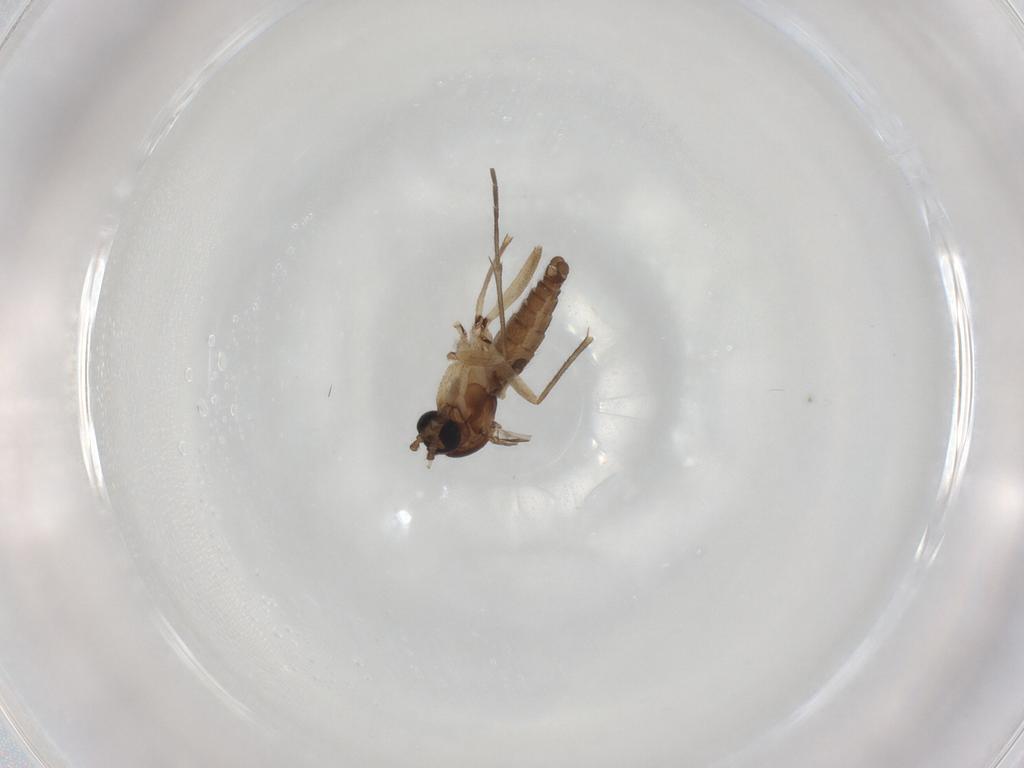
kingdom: Animalia
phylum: Arthropoda
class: Insecta
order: Diptera
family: Sciaridae
